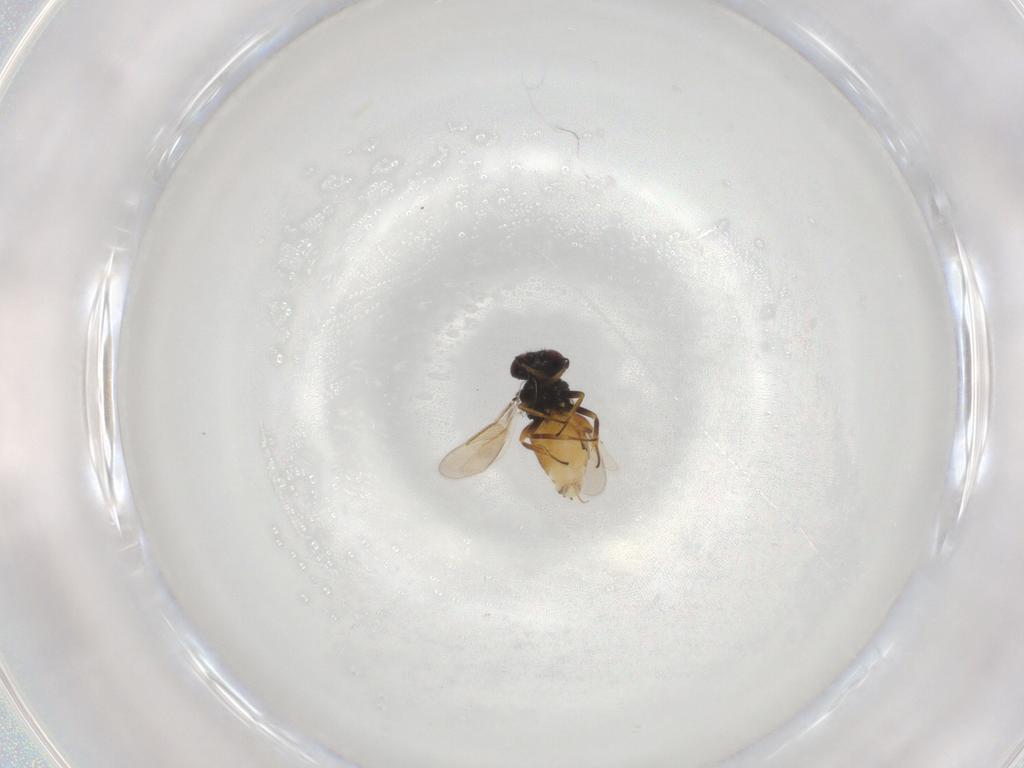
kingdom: Animalia
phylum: Arthropoda
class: Insecta
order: Hymenoptera
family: Aphelinidae
